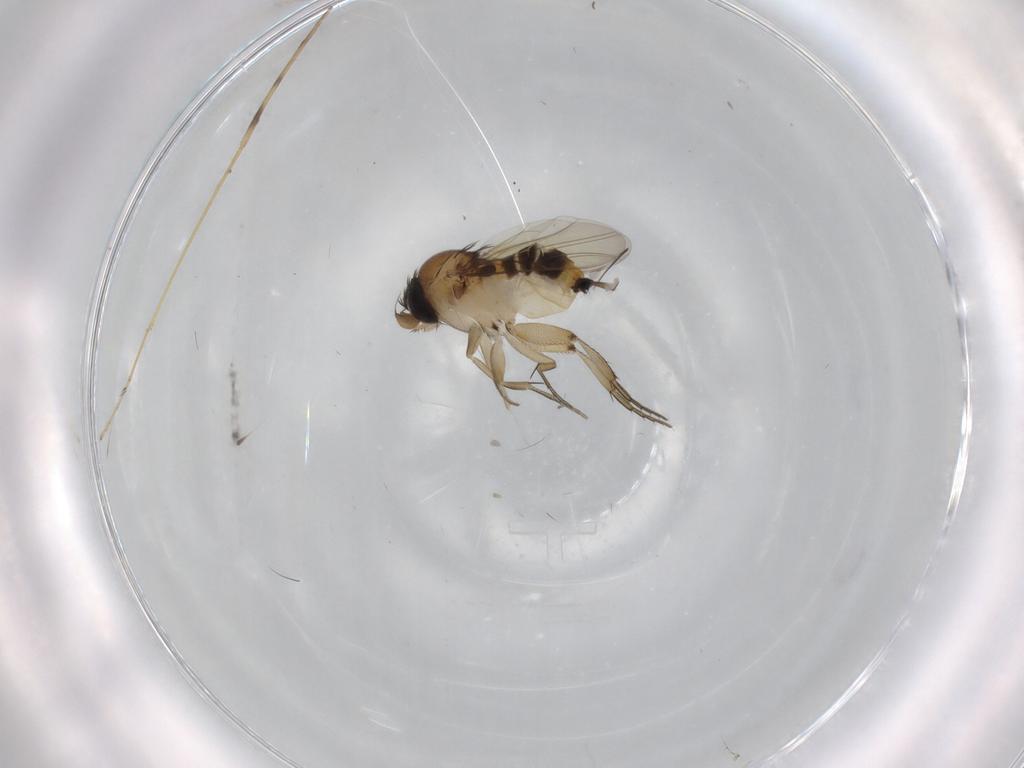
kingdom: Animalia
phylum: Arthropoda
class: Insecta
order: Diptera
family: Phoridae
